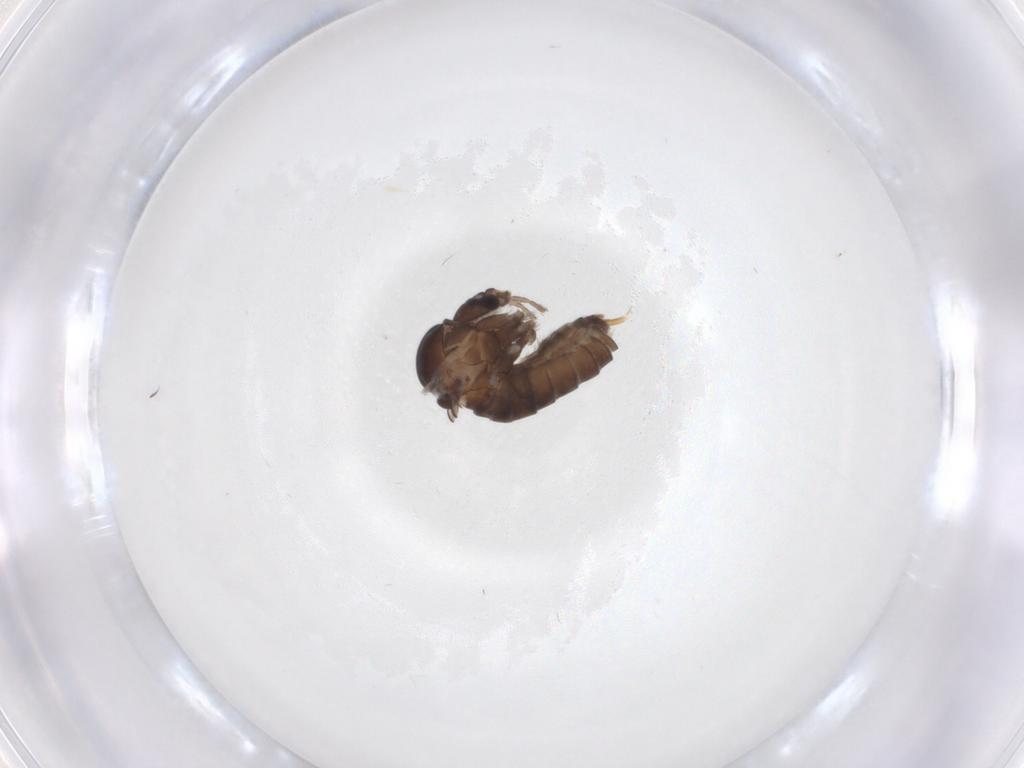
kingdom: Animalia
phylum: Arthropoda
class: Insecta
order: Diptera
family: Psychodidae
